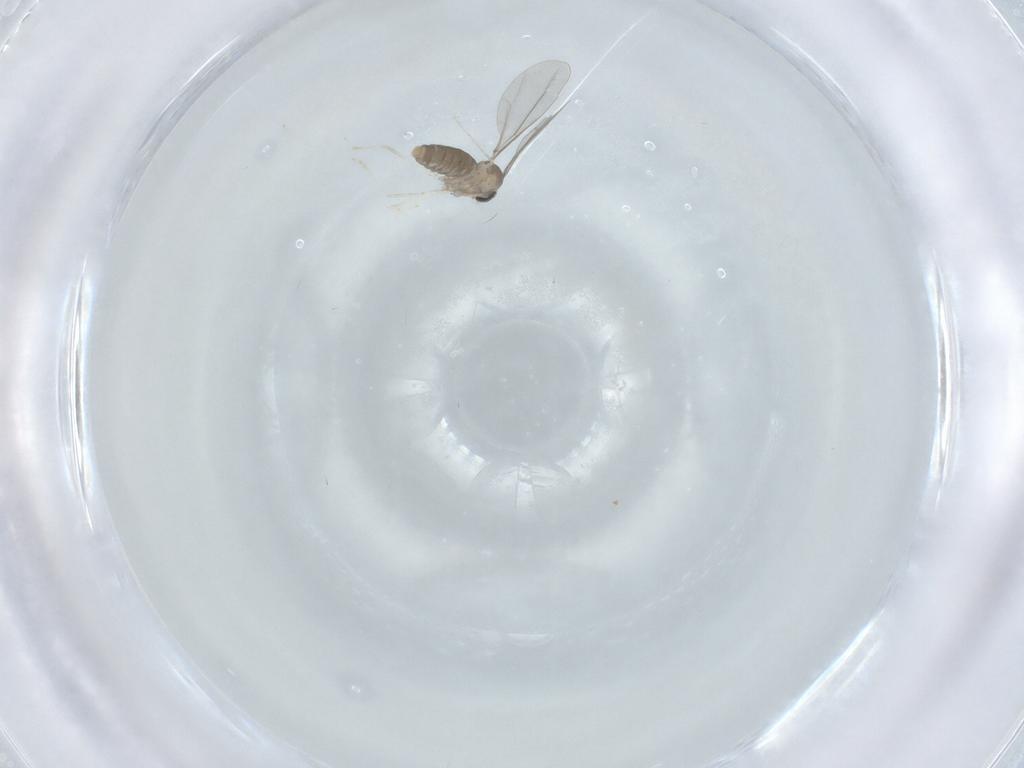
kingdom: Animalia
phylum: Arthropoda
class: Insecta
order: Diptera
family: Cecidomyiidae
